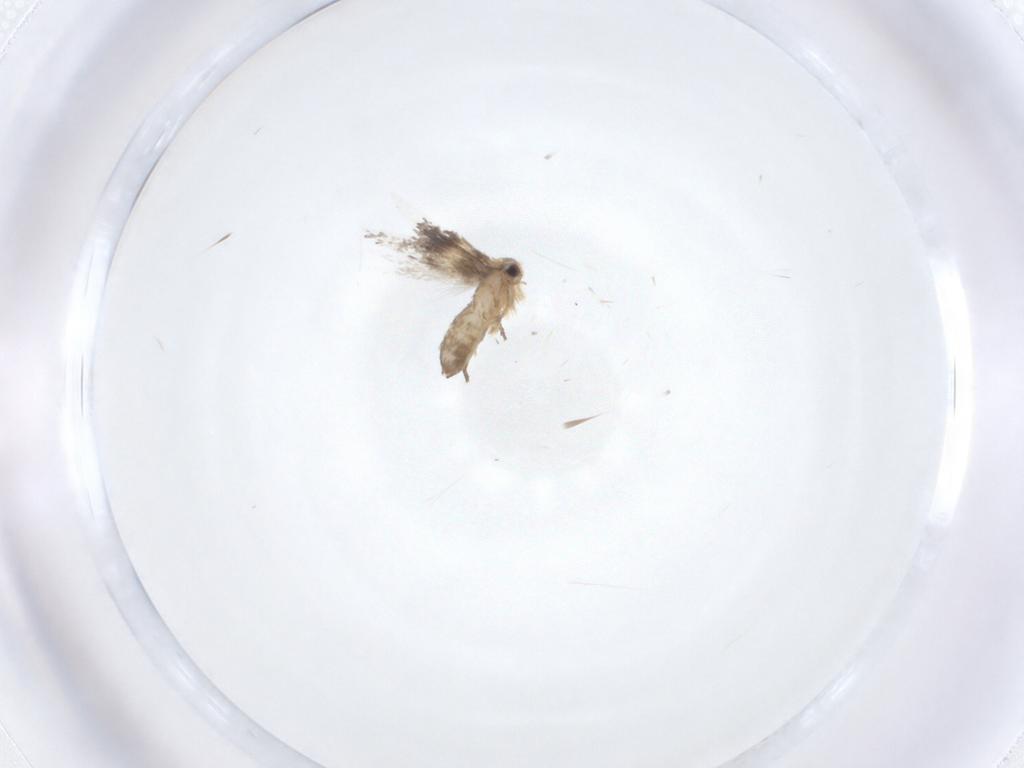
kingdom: Animalia
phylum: Arthropoda
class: Insecta
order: Lepidoptera
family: Nepticulidae
